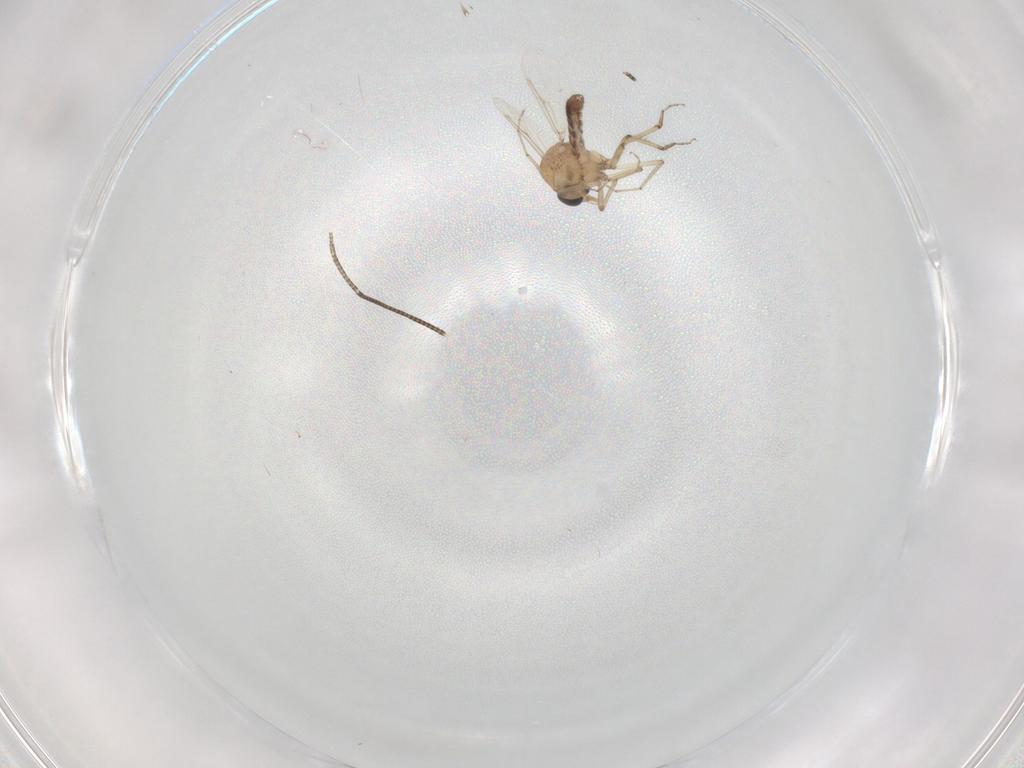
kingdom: Animalia
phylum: Arthropoda
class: Insecta
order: Diptera
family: Ceratopogonidae
